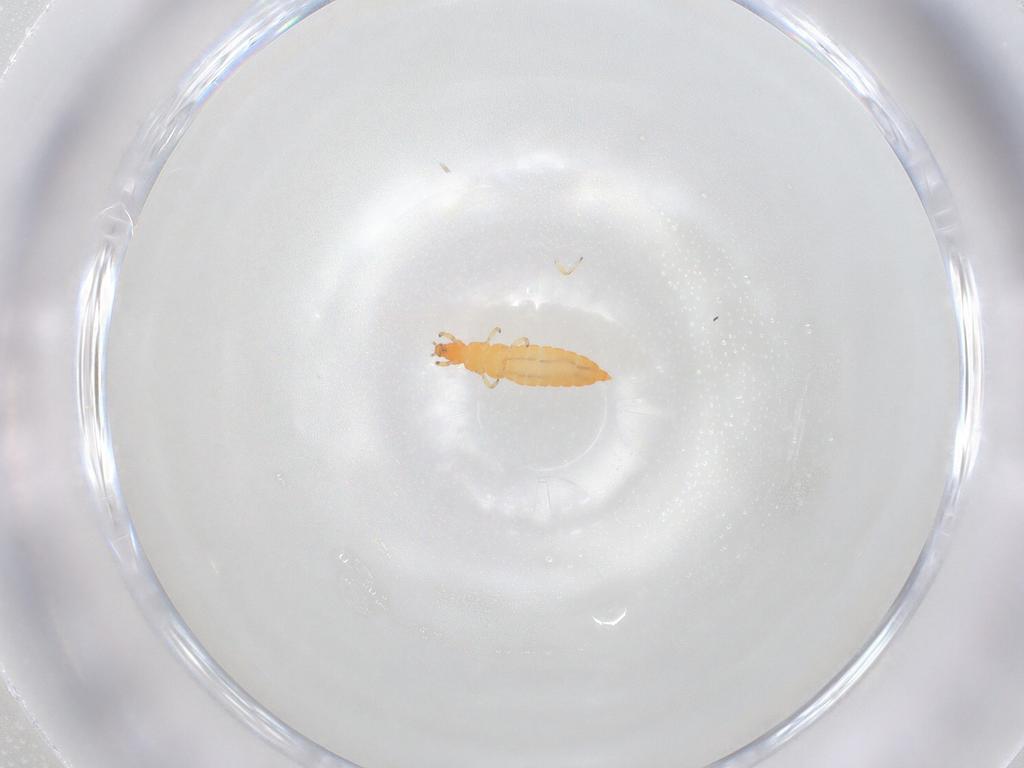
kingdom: Animalia
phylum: Arthropoda
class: Insecta
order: Thysanoptera
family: Aeolothripidae
